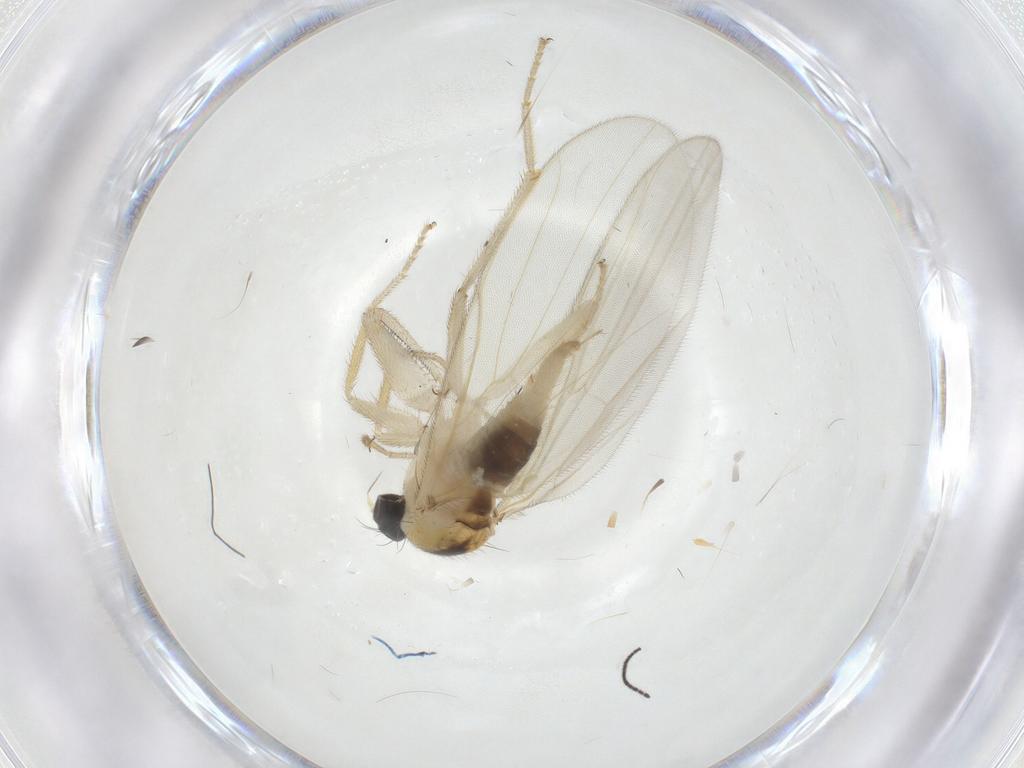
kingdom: Animalia
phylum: Arthropoda
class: Insecta
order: Diptera
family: Hybotidae
